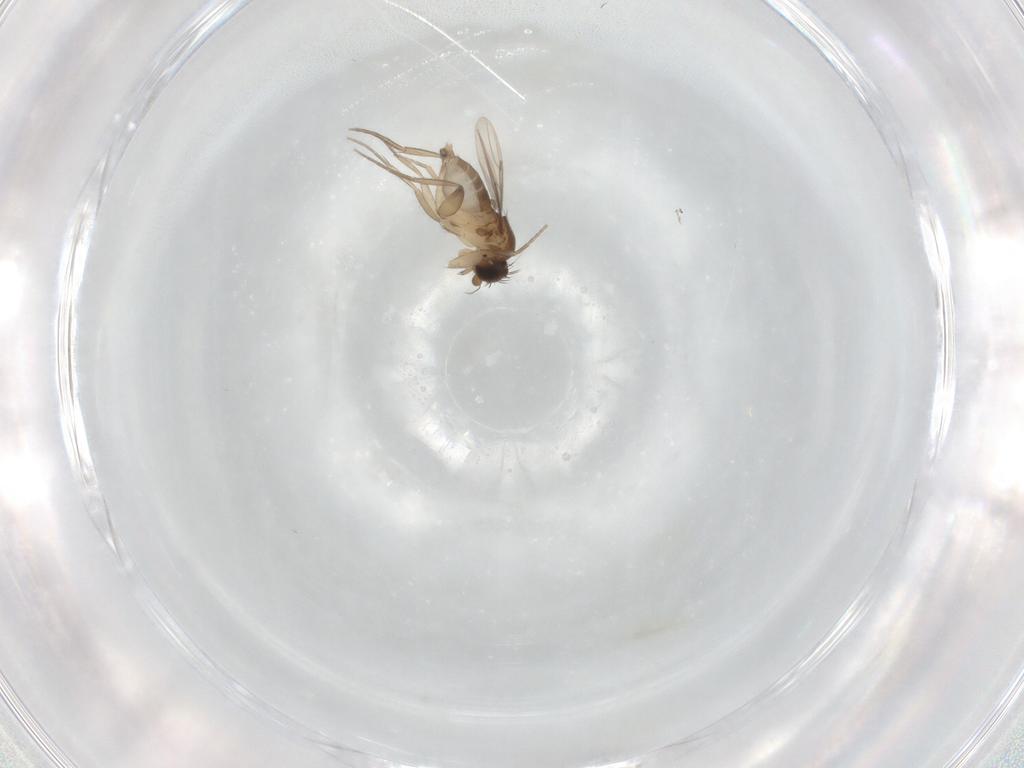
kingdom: Animalia
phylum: Arthropoda
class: Insecta
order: Diptera
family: Phoridae
